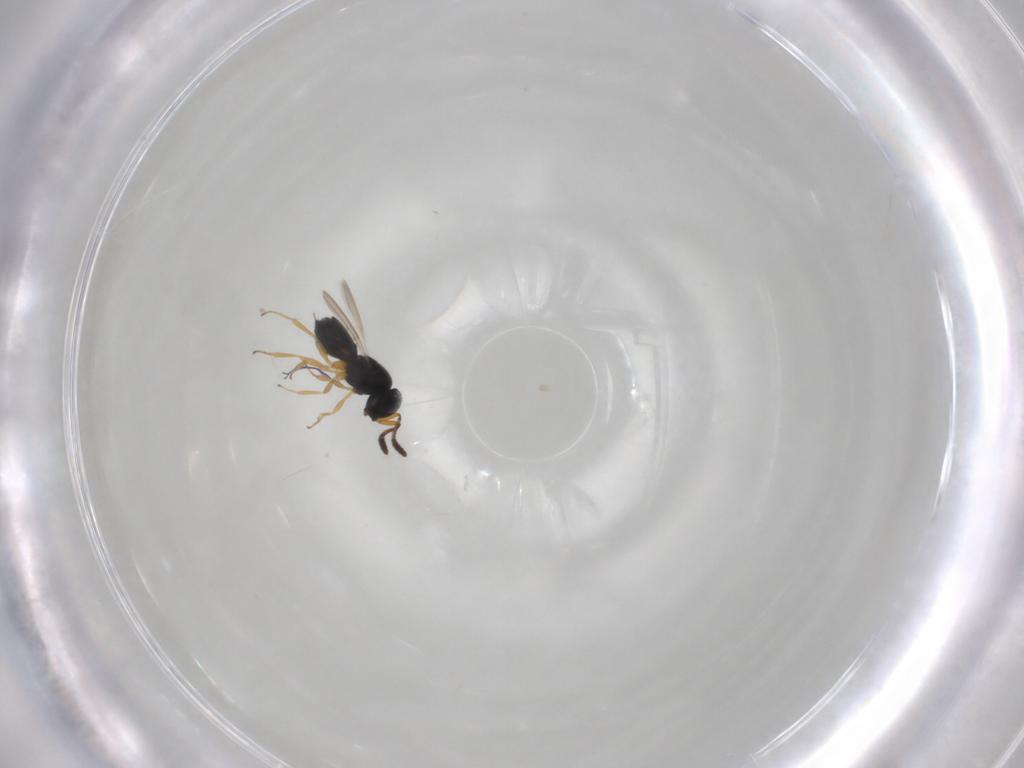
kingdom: Animalia
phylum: Arthropoda
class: Insecta
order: Hymenoptera
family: Scelionidae
